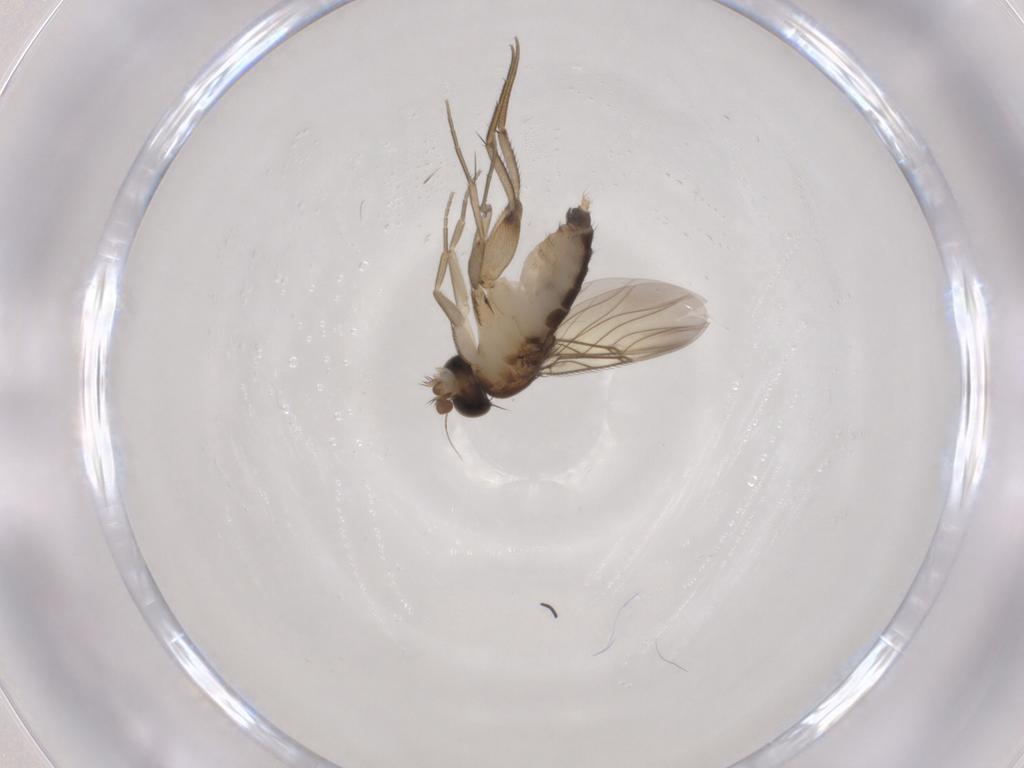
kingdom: Animalia
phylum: Arthropoda
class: Insecta
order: Diptera
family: Phoridae
